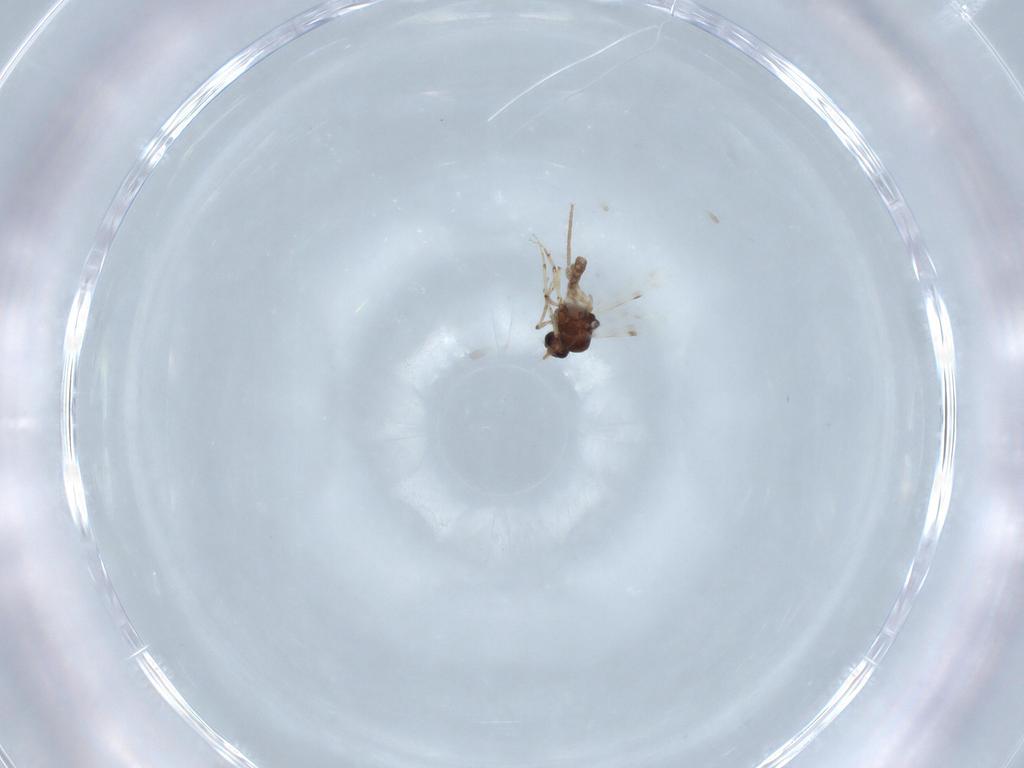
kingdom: Animalia
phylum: Arthropoda
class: Insecta
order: Diptera
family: Chironomidae
